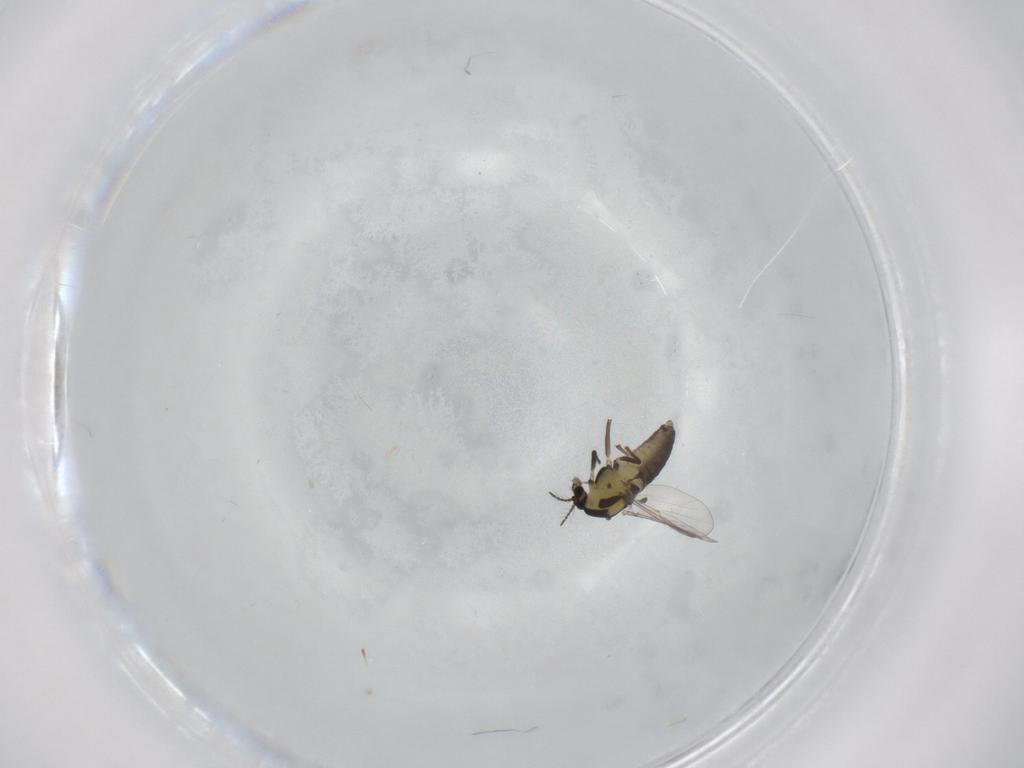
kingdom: Animalia
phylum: Arthropoda
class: Insecta
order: Diptera
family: Chironomidae
